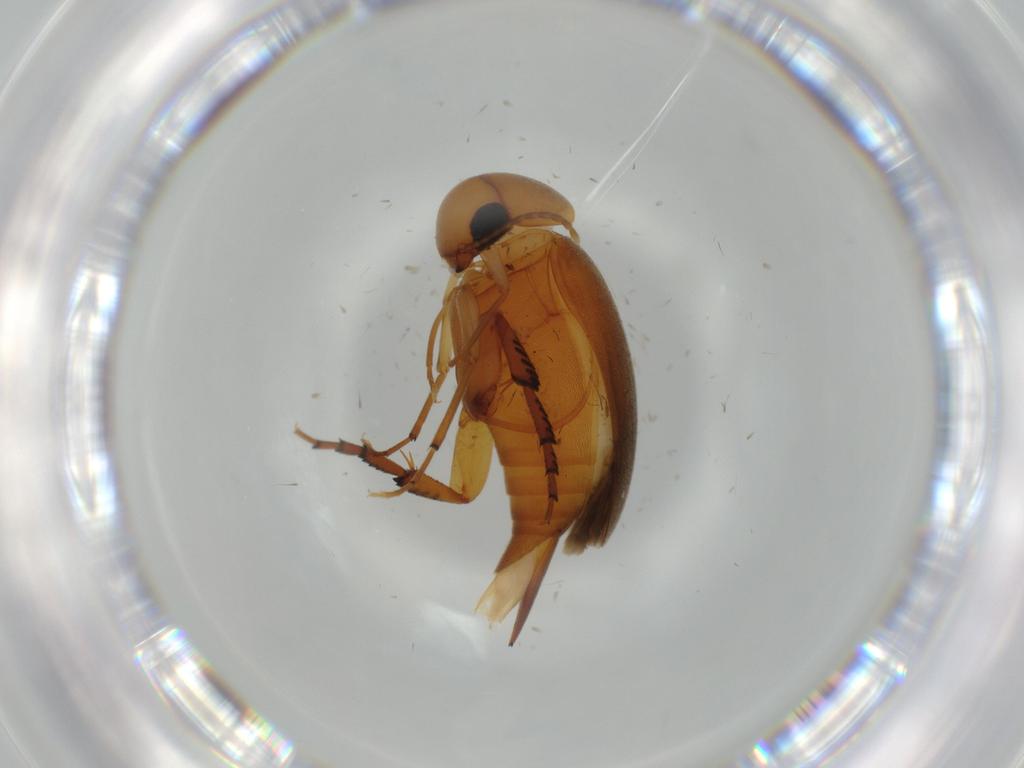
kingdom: Animalia
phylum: Arthropoda
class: Insecta
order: Coleoptera
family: Mordellidae
